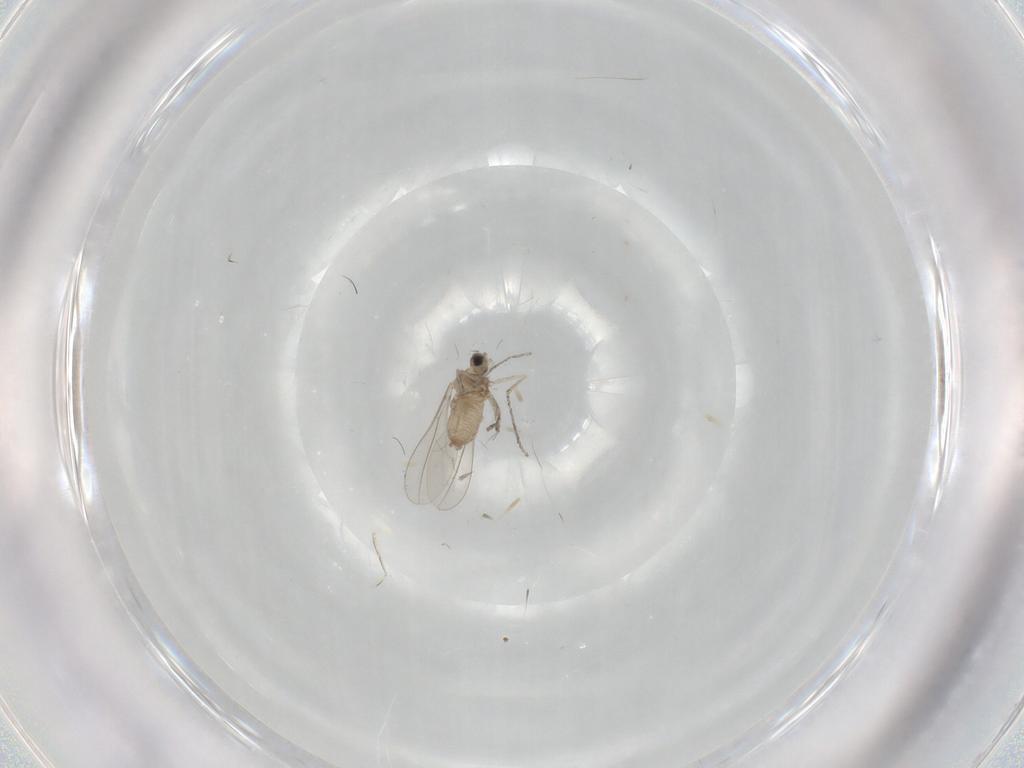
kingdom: Animalia
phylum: Arthropoda
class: Insecta
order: Diptera
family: Cecidomyiidae
